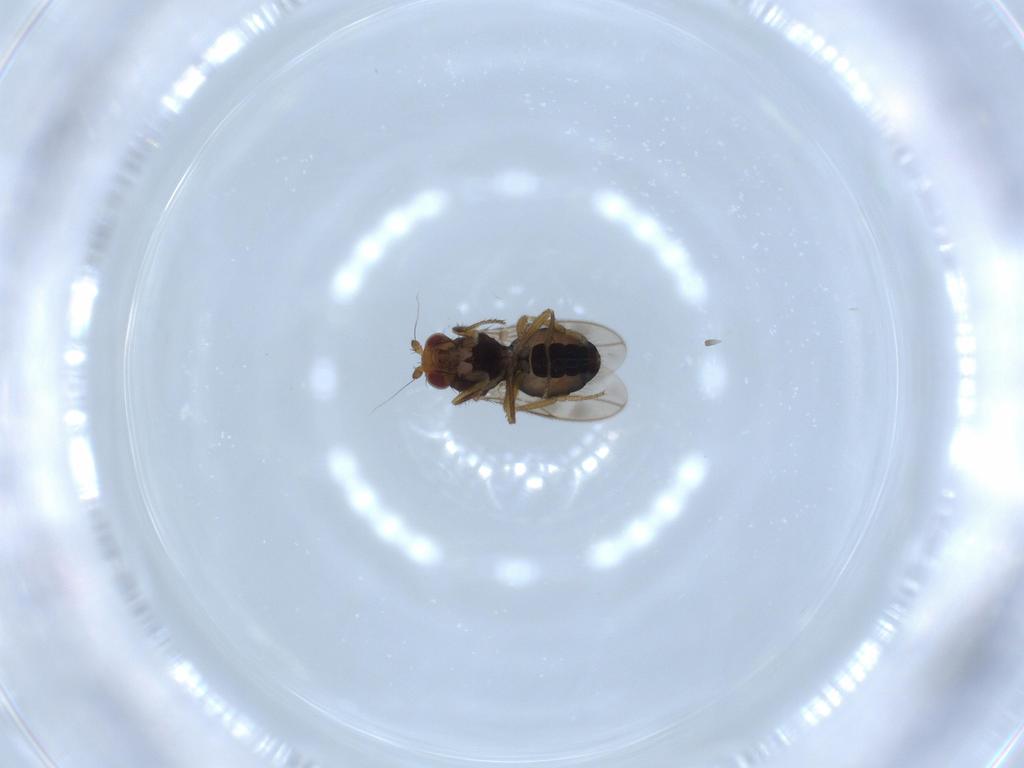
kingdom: Animalia
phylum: Arthropoda
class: Insecta
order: Diptera
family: Sphaeroceridae
